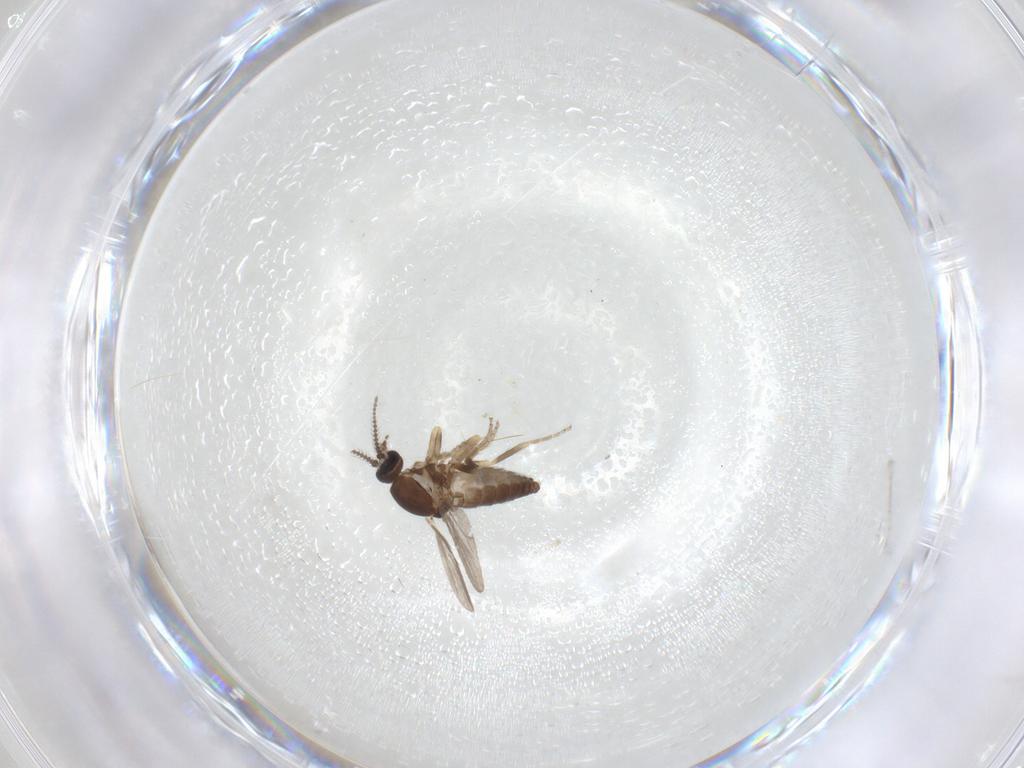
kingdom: Animalia
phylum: Arthropoda
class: Insecta
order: Diptera
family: Ceratopogonidae
